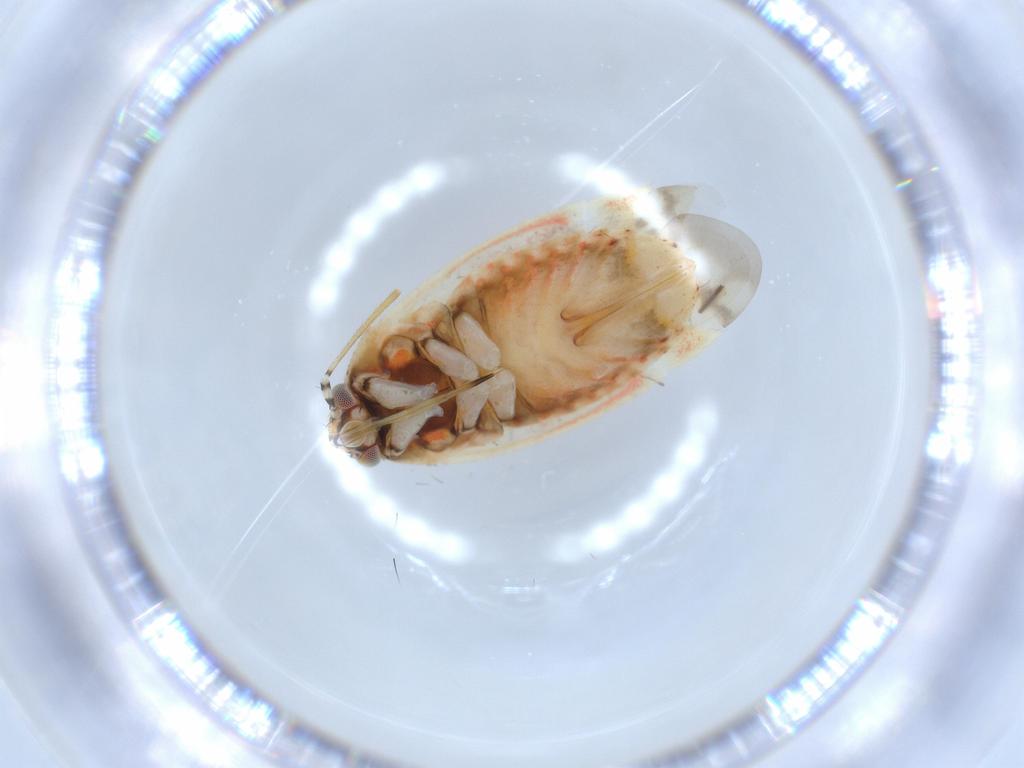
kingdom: Animalia
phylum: Arthropoda
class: Insecta
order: Hemiptera
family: Miridae
